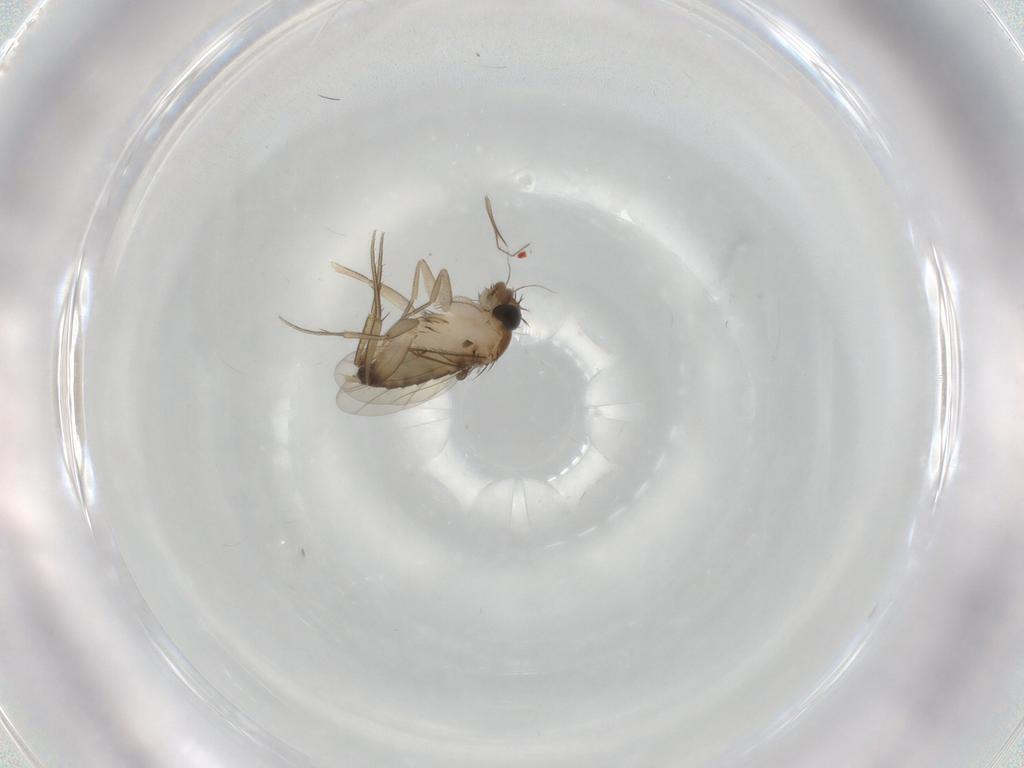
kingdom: Animalia
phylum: Arthropoda
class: Insecta
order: Diptera
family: Phoridae
